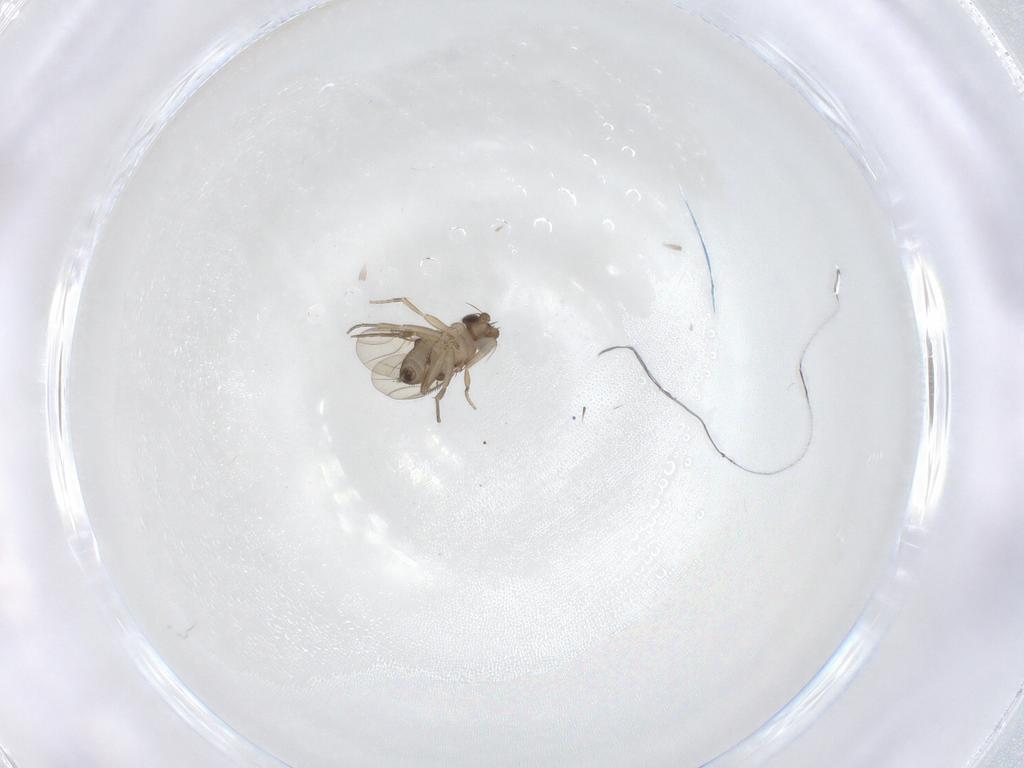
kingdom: Animalia
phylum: Arthropoda
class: Insecta
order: Diptera
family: Phoridae
